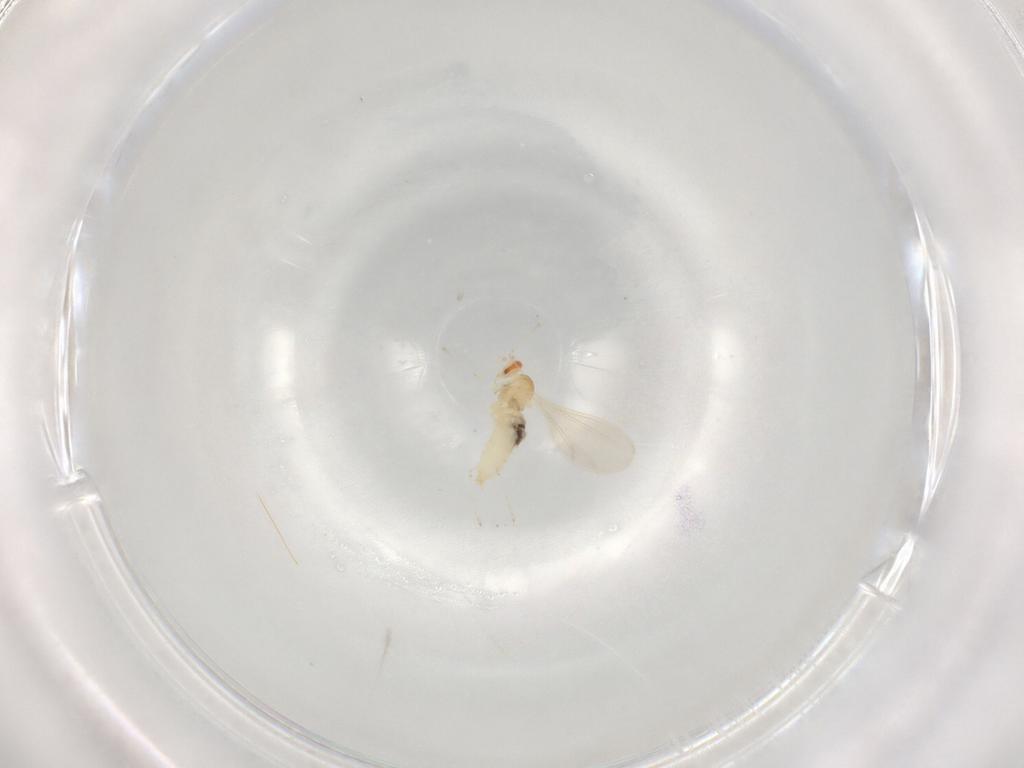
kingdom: Animalia
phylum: Arthropoda
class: Insecta
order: Diptera
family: Cecidomyiidae
